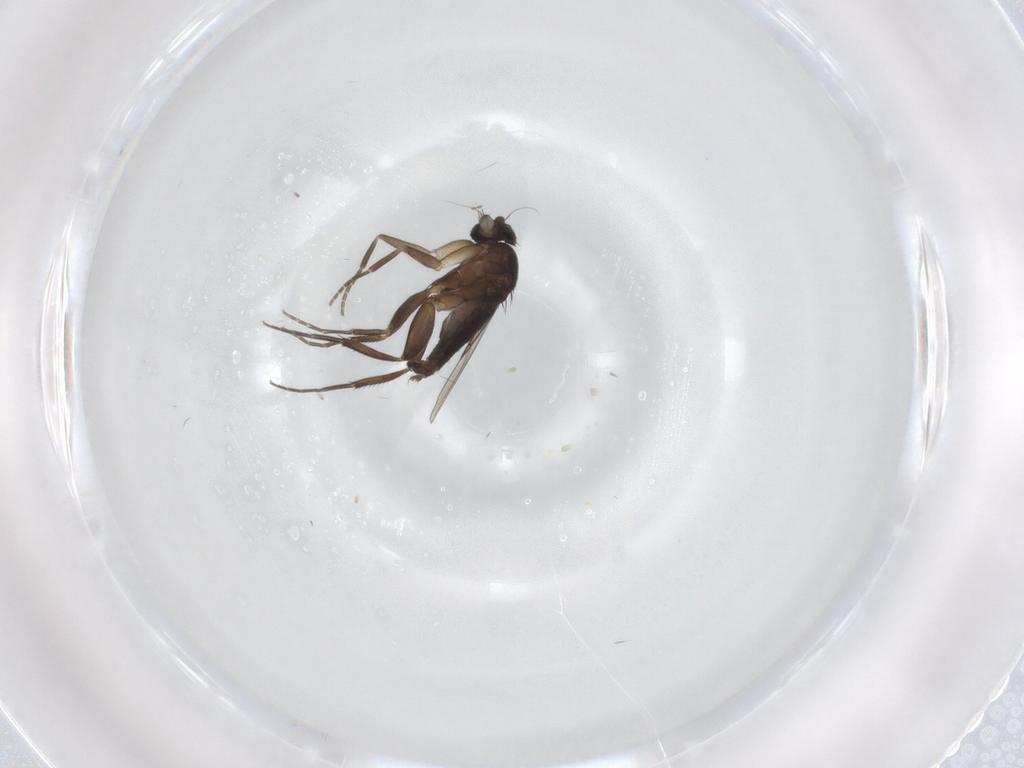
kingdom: Animalia
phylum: Arthropoda
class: Insecta
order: Diptera
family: Phoridae
